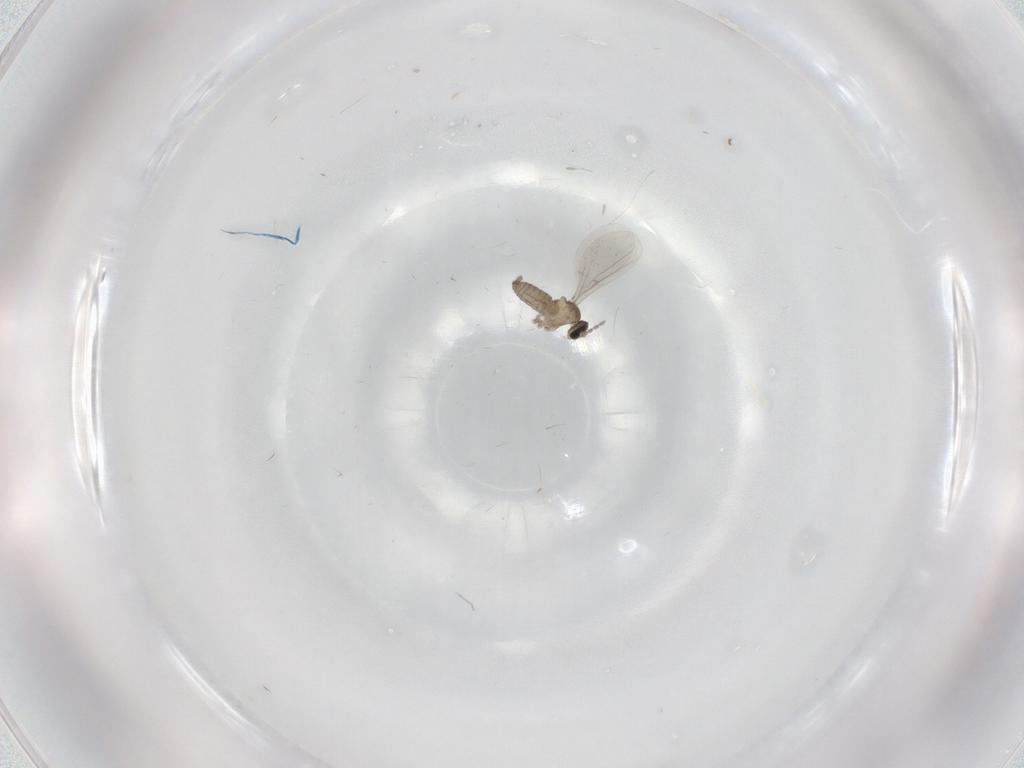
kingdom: Animalia
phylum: Arthropoda
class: Insecta
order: Diptera
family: Cecidomyiidae
